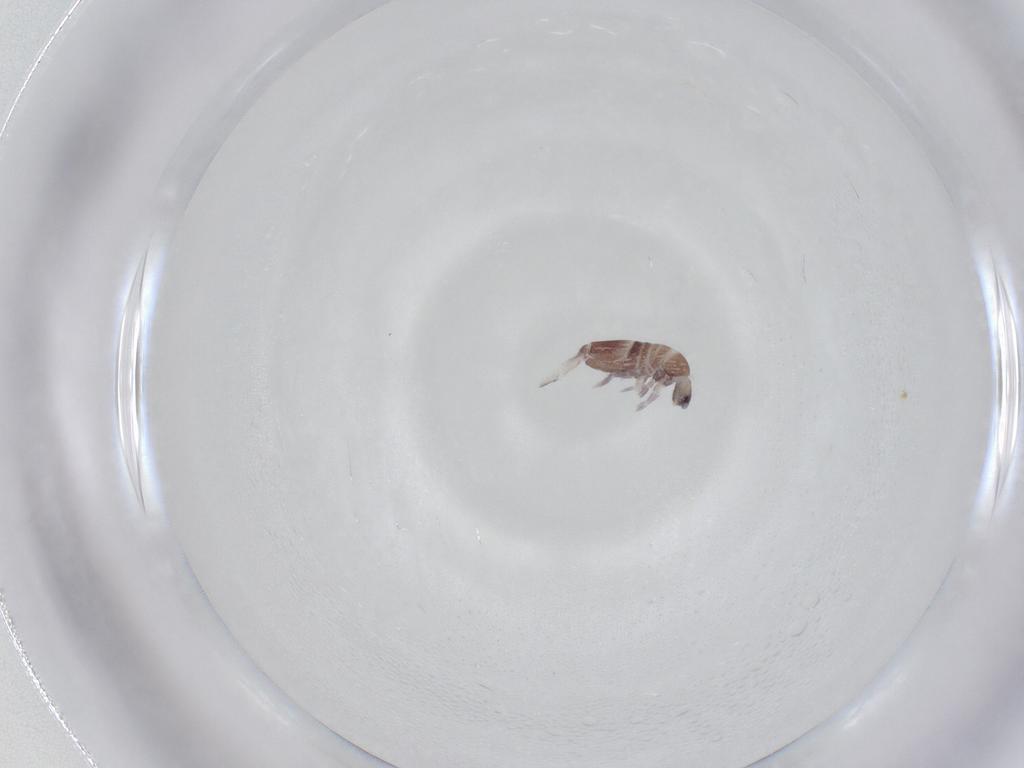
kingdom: Animalia
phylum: Arthropoda
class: Collembola
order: Entomobryomorpha
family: Entomobryidae
